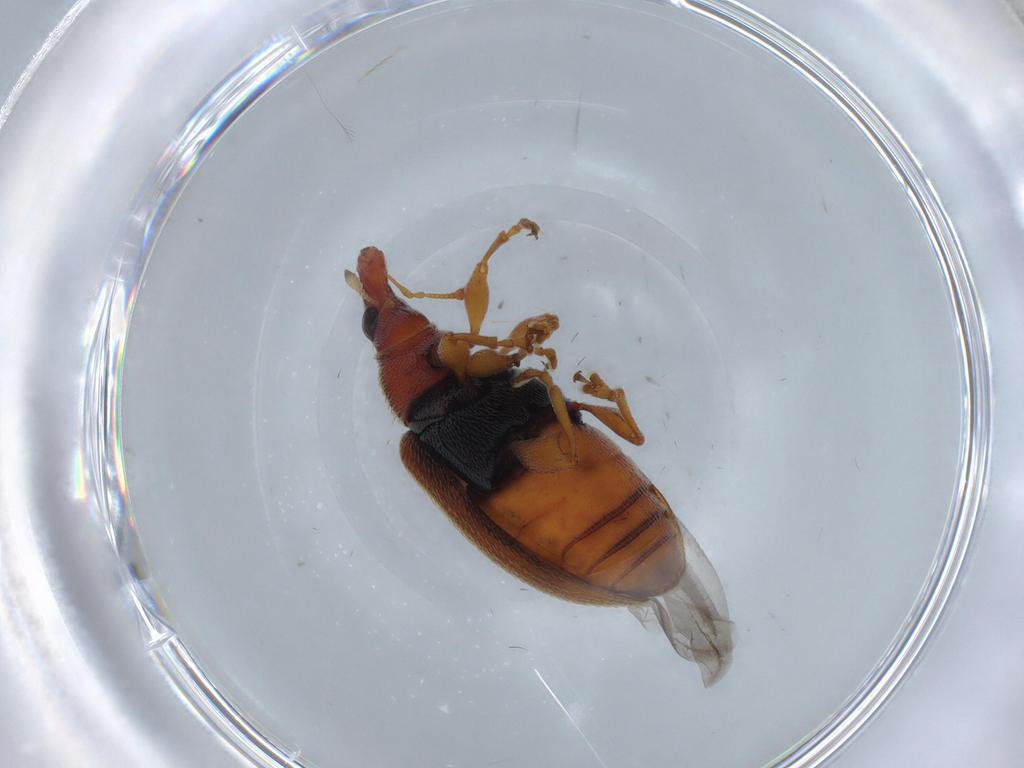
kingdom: Animalia
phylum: Arthropoda
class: Insecta
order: Coleoptera
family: Curculionidae
